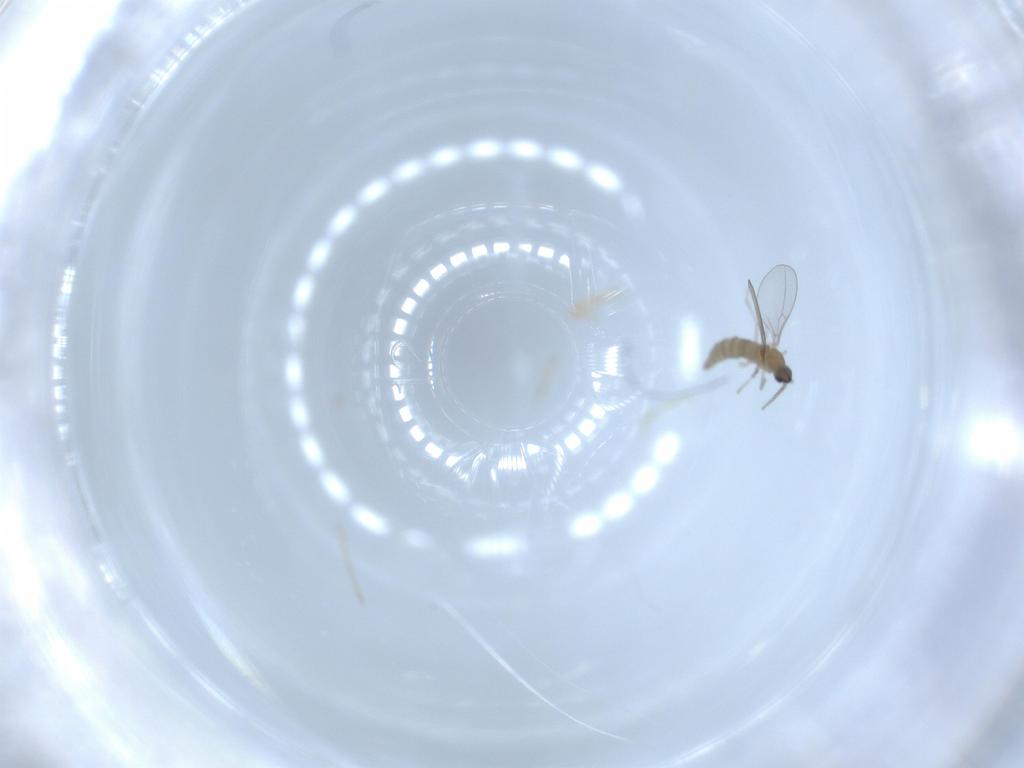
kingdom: Animalia
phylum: Arthropoda
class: Insecta
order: Diptera
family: Cecidomyiidae
